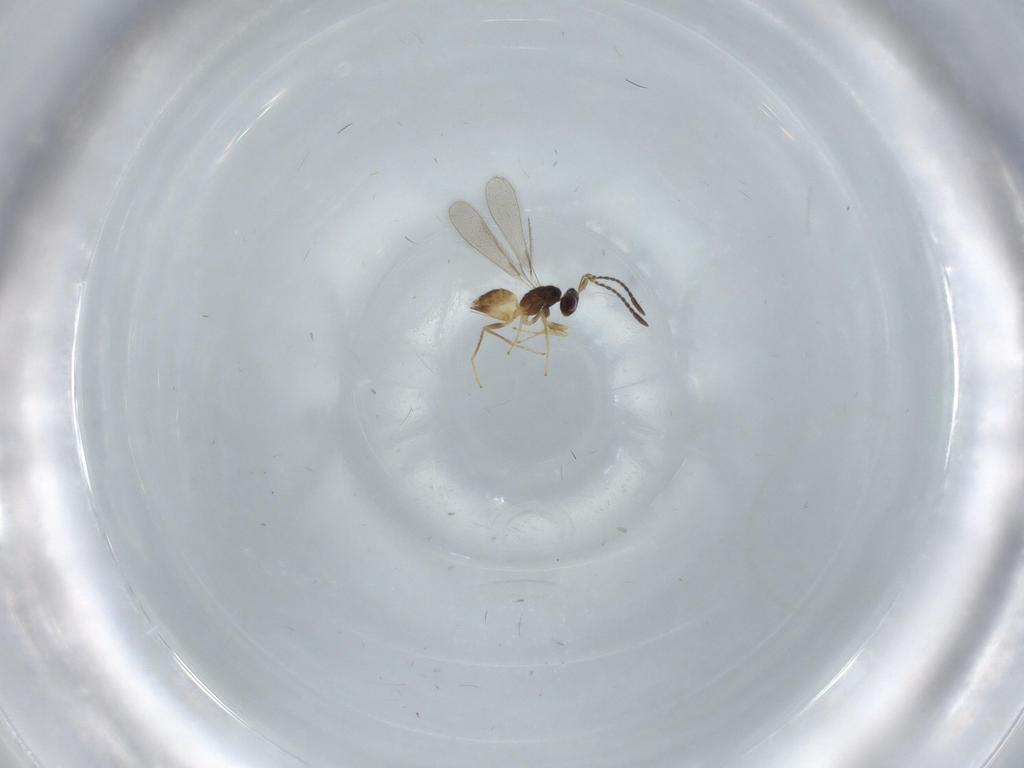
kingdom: Animalia
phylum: Arthropoda
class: Insecta
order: Hymenoptera
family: Mymaridae
